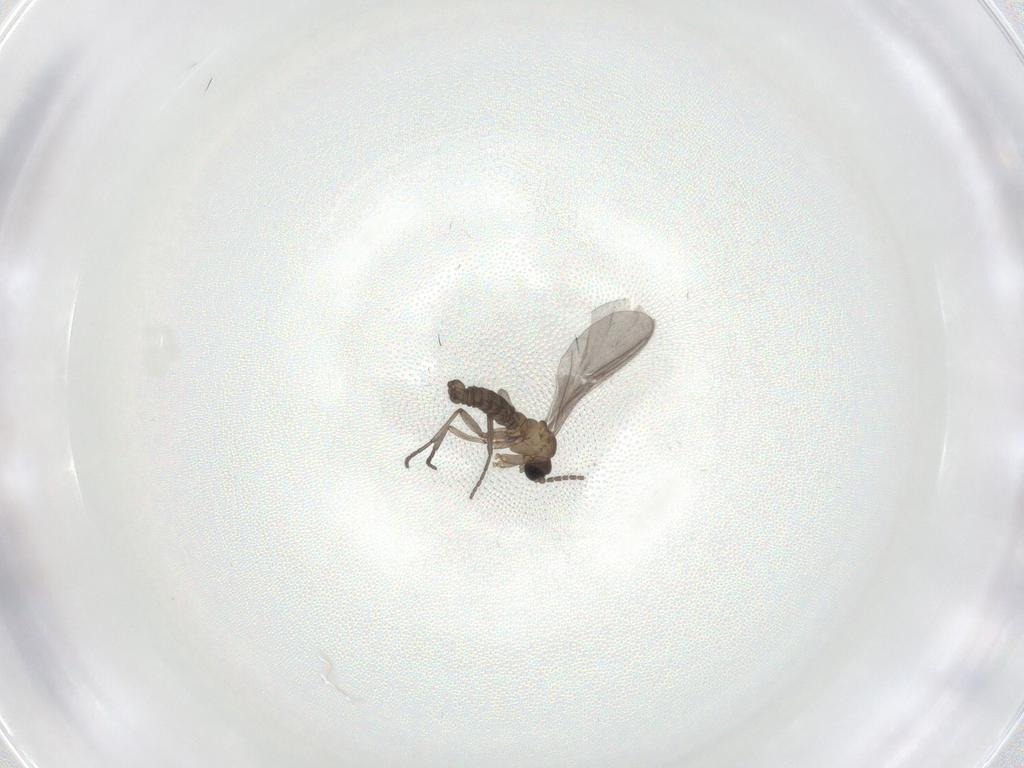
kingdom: Animalia
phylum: Arthropoda
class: Insecta
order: Diptera
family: Sciaridae
